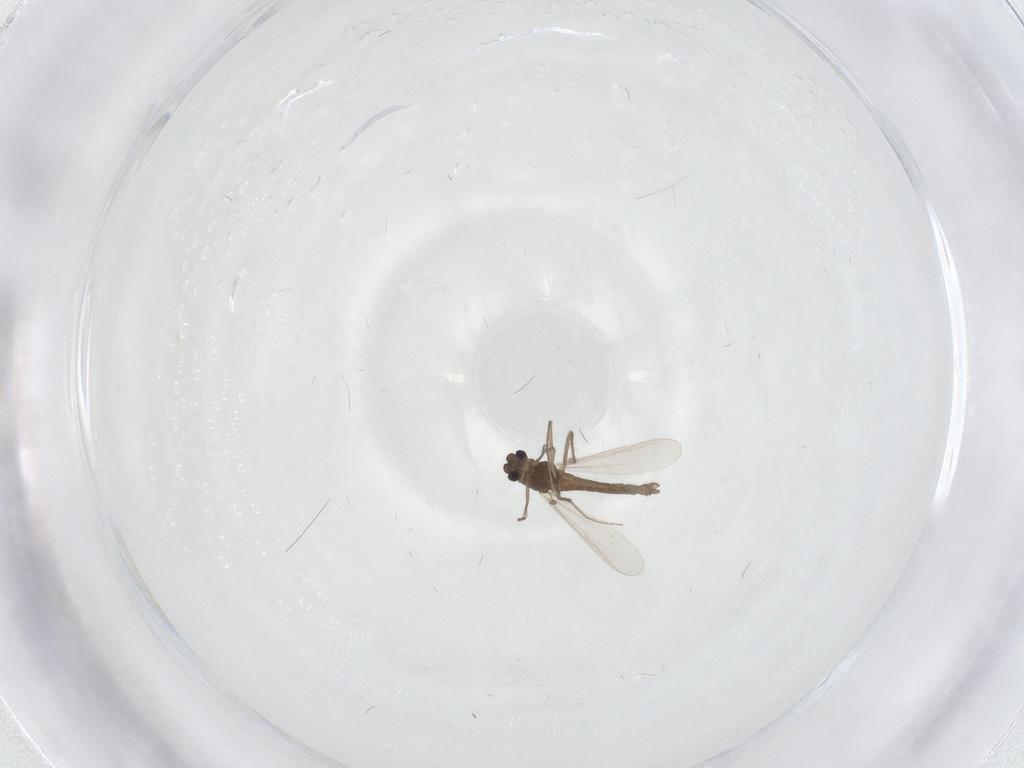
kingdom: Animalia
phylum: Arthropoda
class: Insecta
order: Diptera
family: Chironomidae
